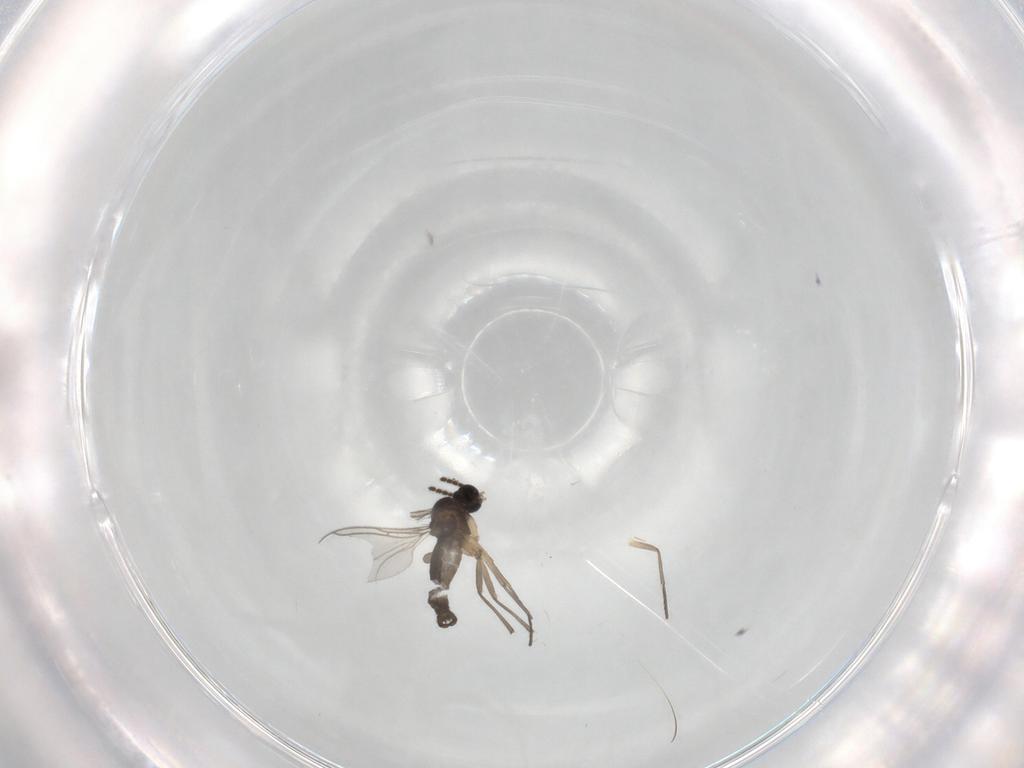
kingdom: Animalia
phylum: Arthropoda
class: Insecta
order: Diptera
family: Sciaridae
